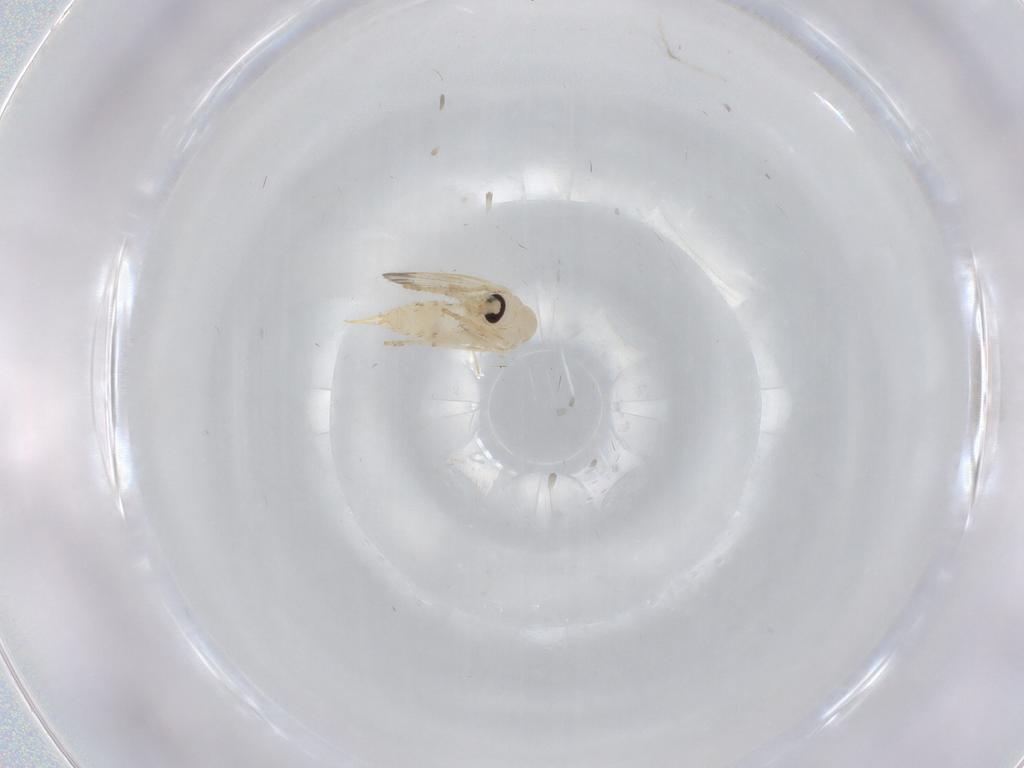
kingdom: Animalia
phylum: Arthropoda
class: Insecta
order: Diptera
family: Psychodidae
